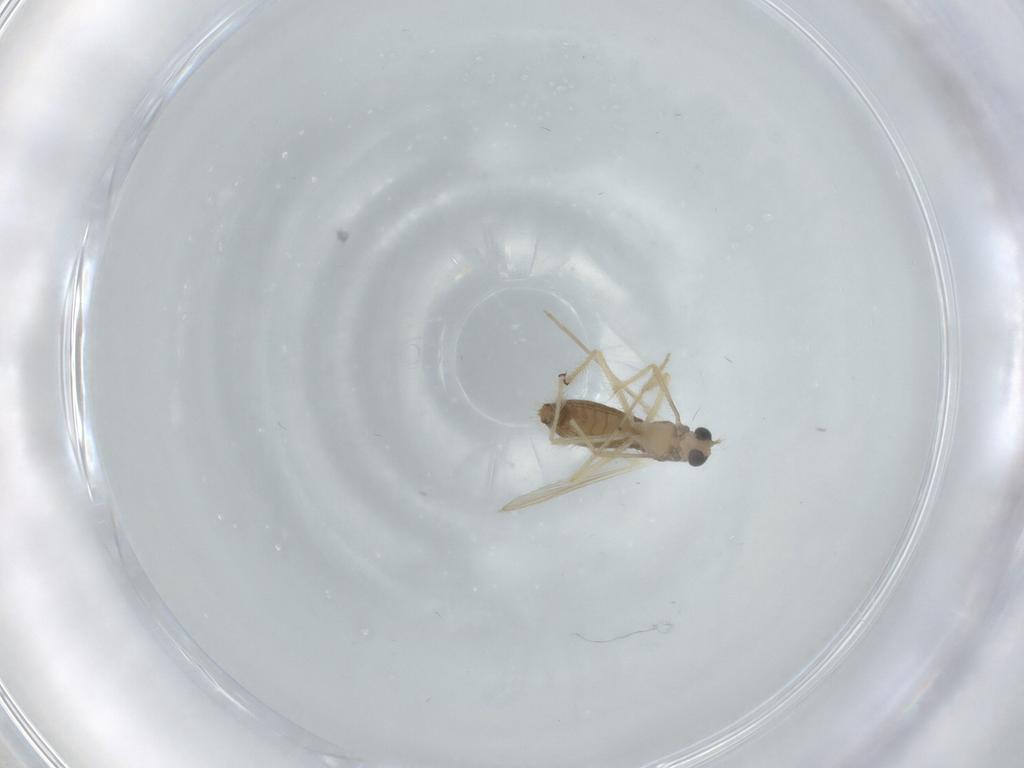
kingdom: Animalia
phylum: Arthropoda
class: Insecta
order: Diptera
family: Chironomidae
